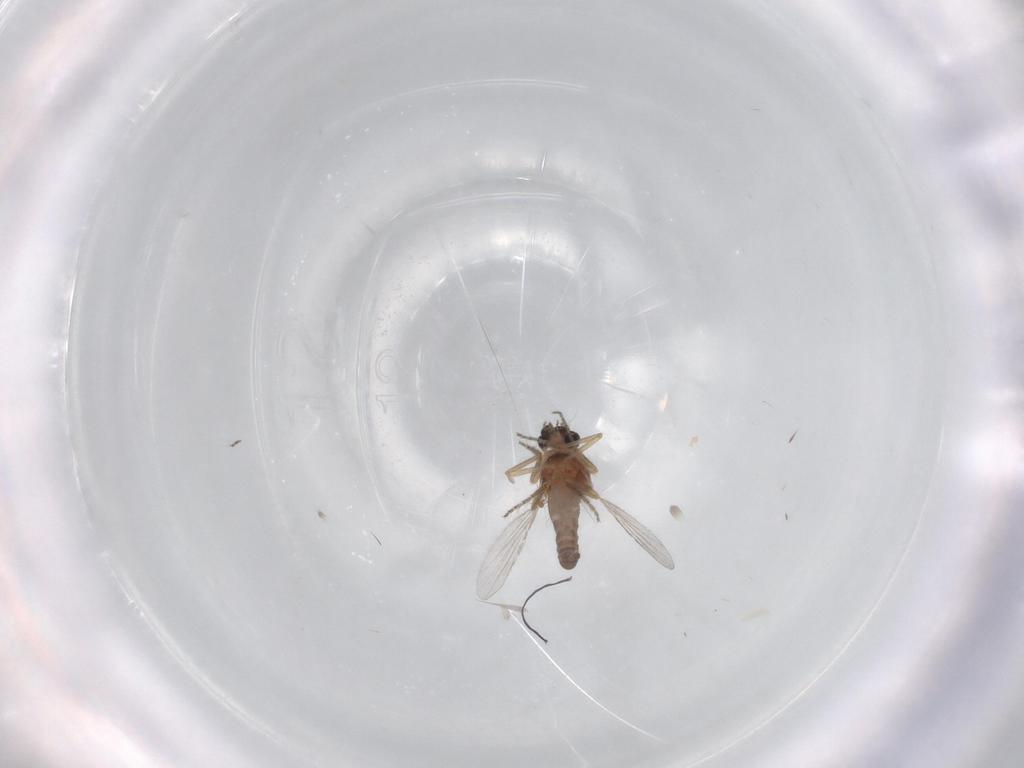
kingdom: Animalia
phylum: Arthropoda
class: Insecta
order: Diptera
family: Ceratopogonidae
